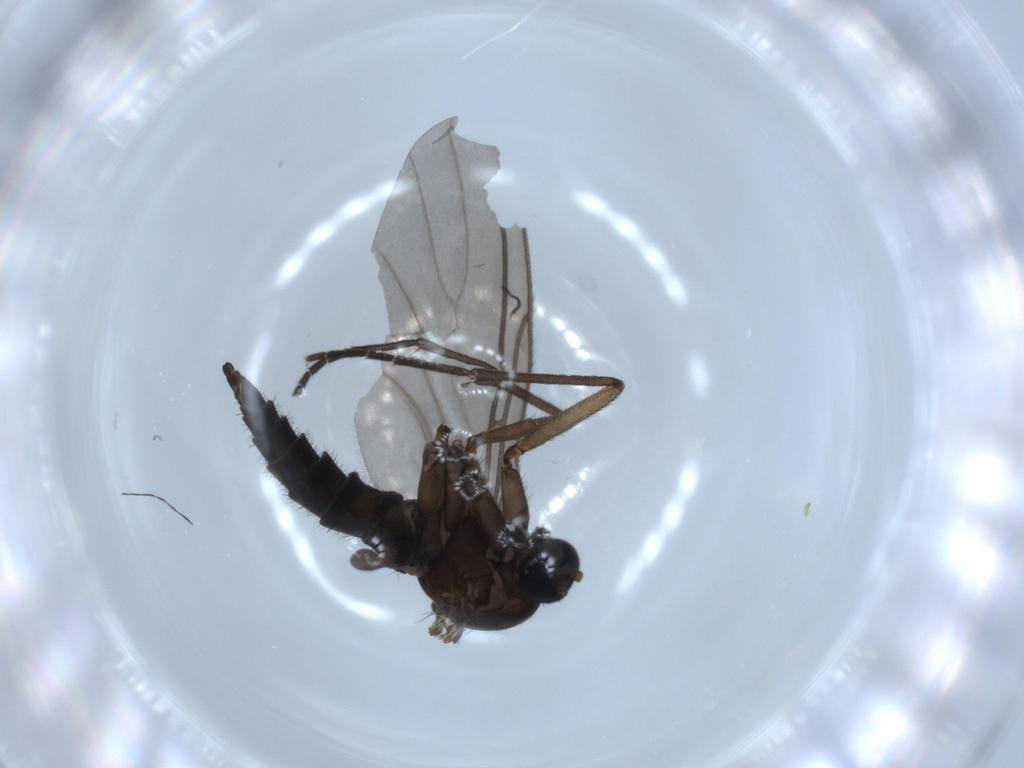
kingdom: Animalia
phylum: Arthropoda
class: Insecta
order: Diptera
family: Sciaridae
